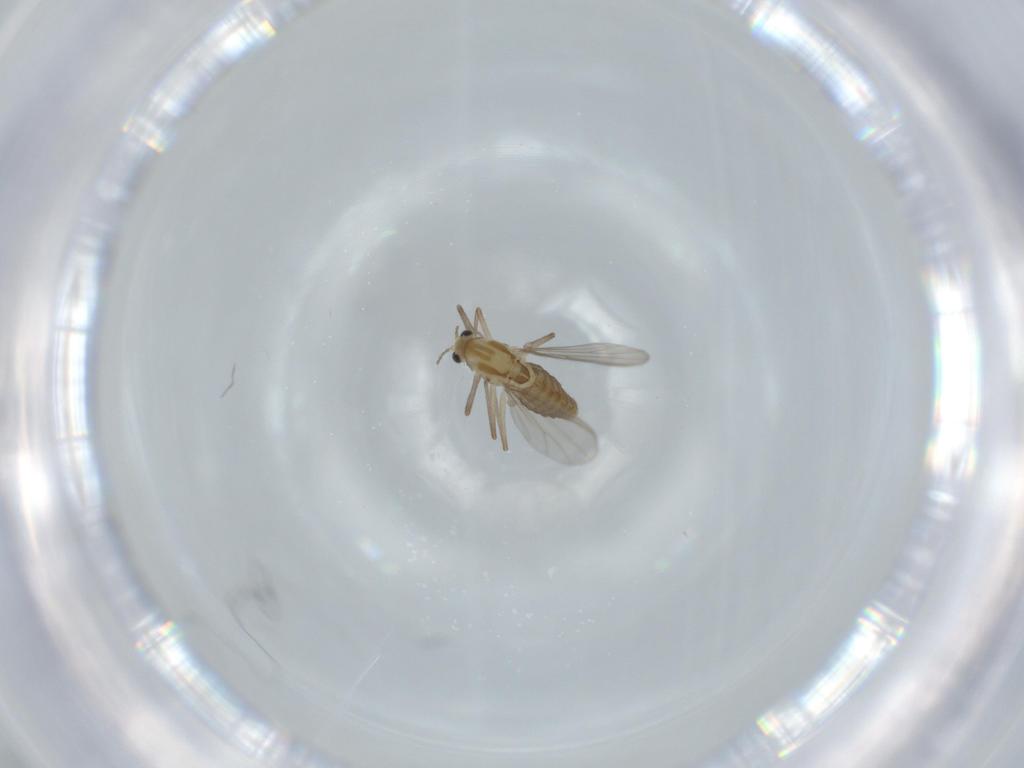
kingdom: Animalia
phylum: Arthropoda
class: Insecta
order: Diptera
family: Chironomidae
